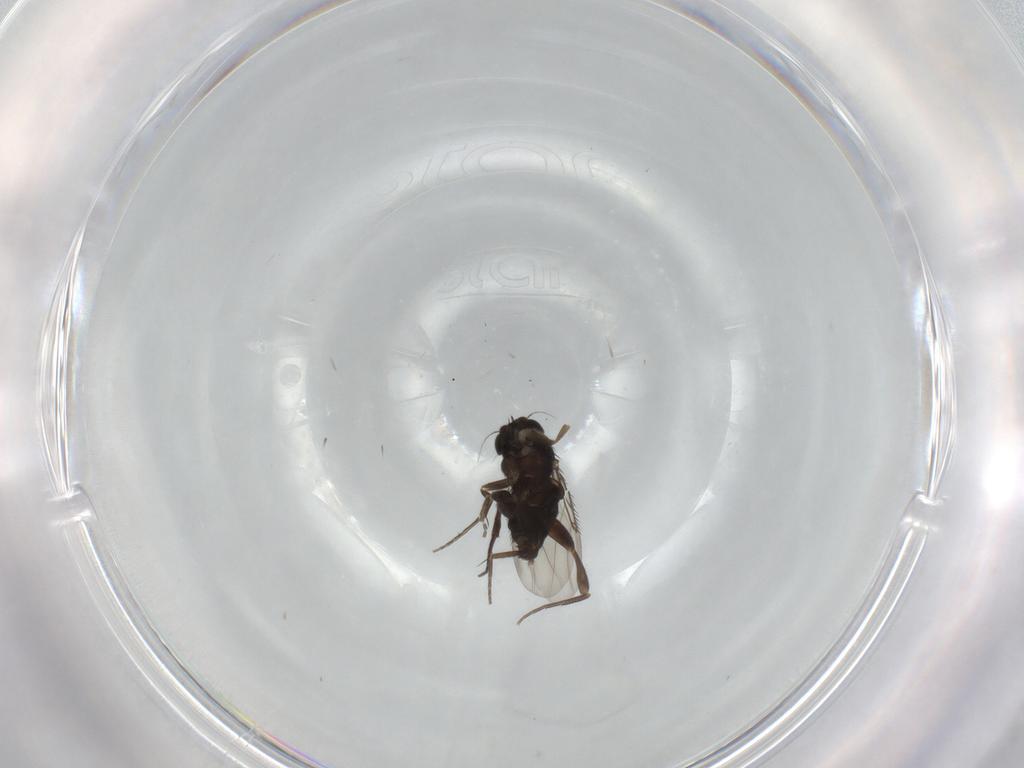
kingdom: Animalia
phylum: Arthropoda
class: Insecta
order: Diptera
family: Phoridae
